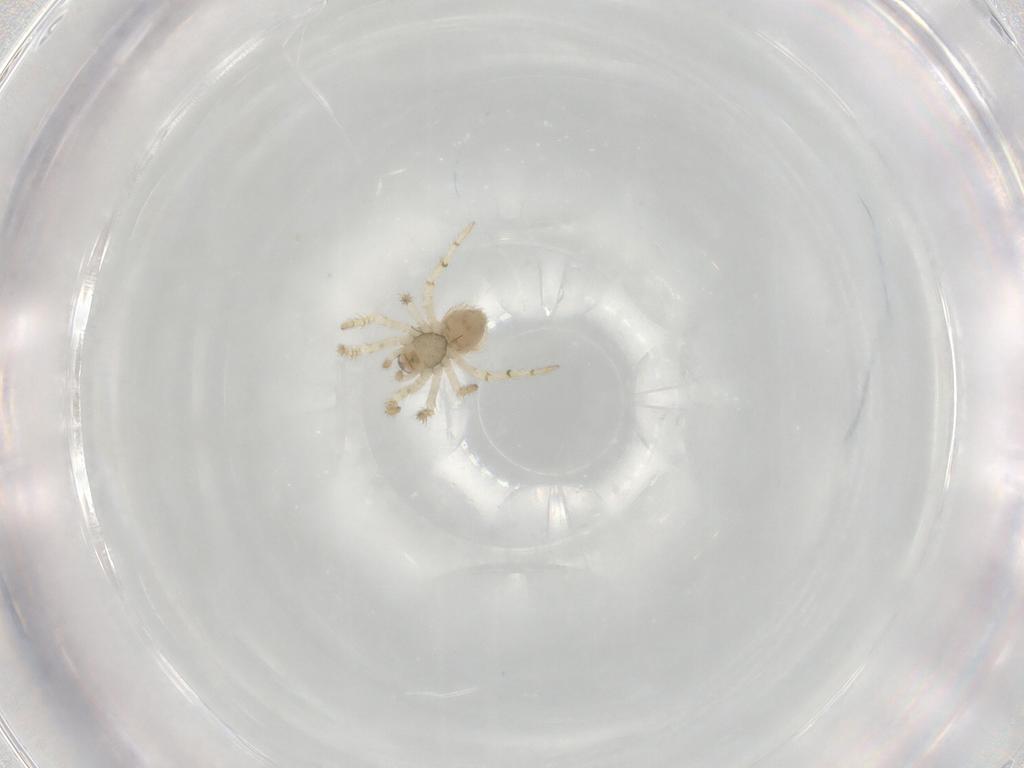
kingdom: Animalia
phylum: Arthropoda
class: Arachnida
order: Araneae
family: Theridiidae
